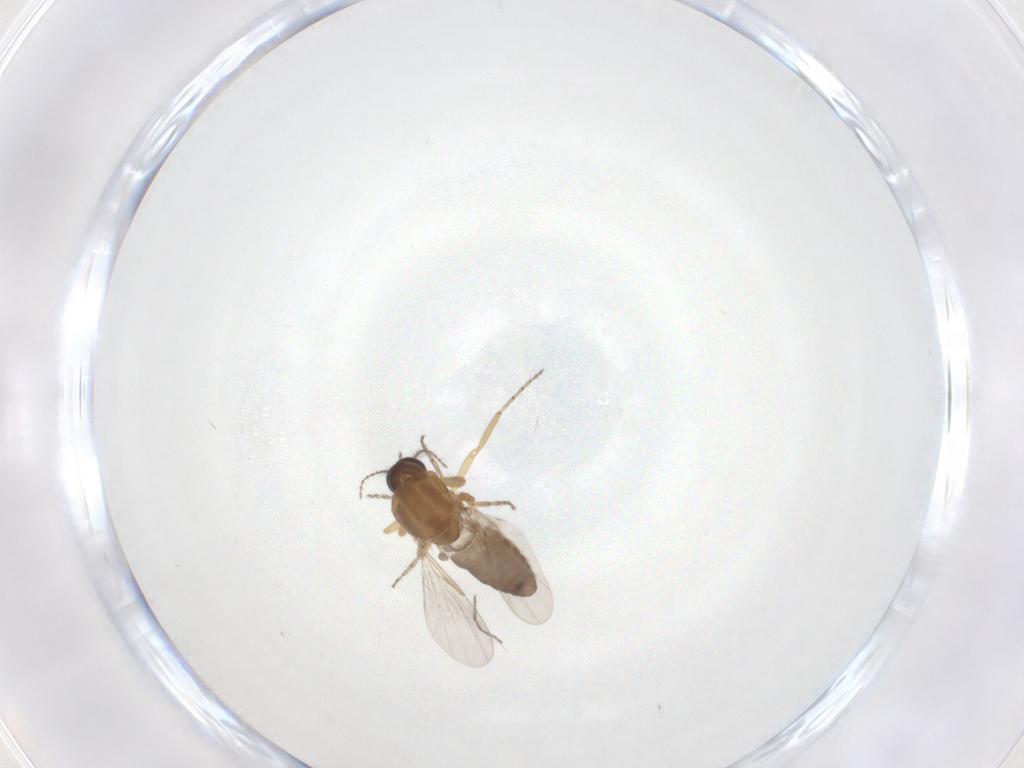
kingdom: Animalia
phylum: Arthropoda
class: Insecta
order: Diptera
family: Ceratopogonidae
